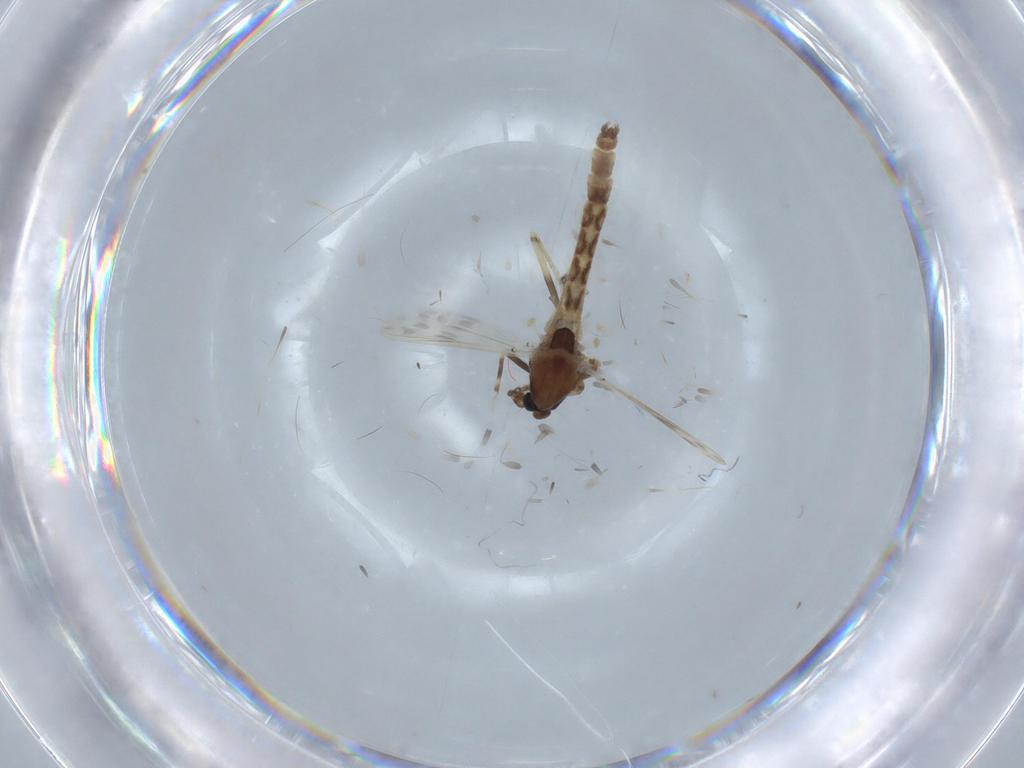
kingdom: Animalia
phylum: Arthropoda
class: Insecta
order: Diptera
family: Chironomidae
